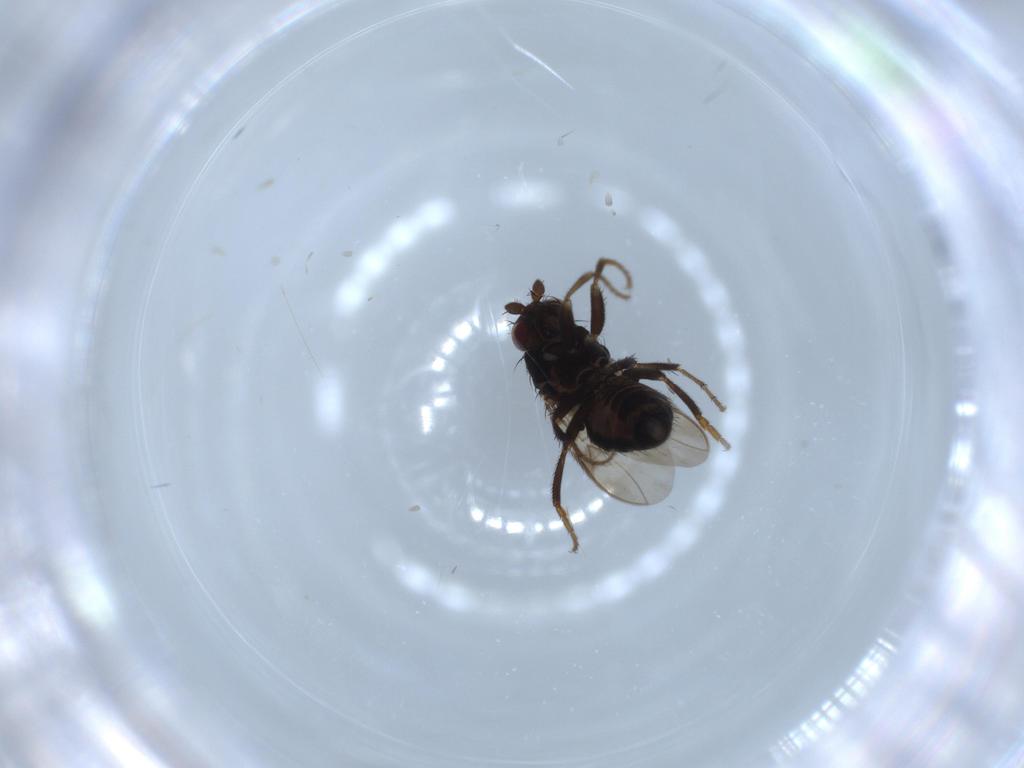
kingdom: Animalia
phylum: Arthropoda
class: Insecta
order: Diptera
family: Sphaeroceridae
